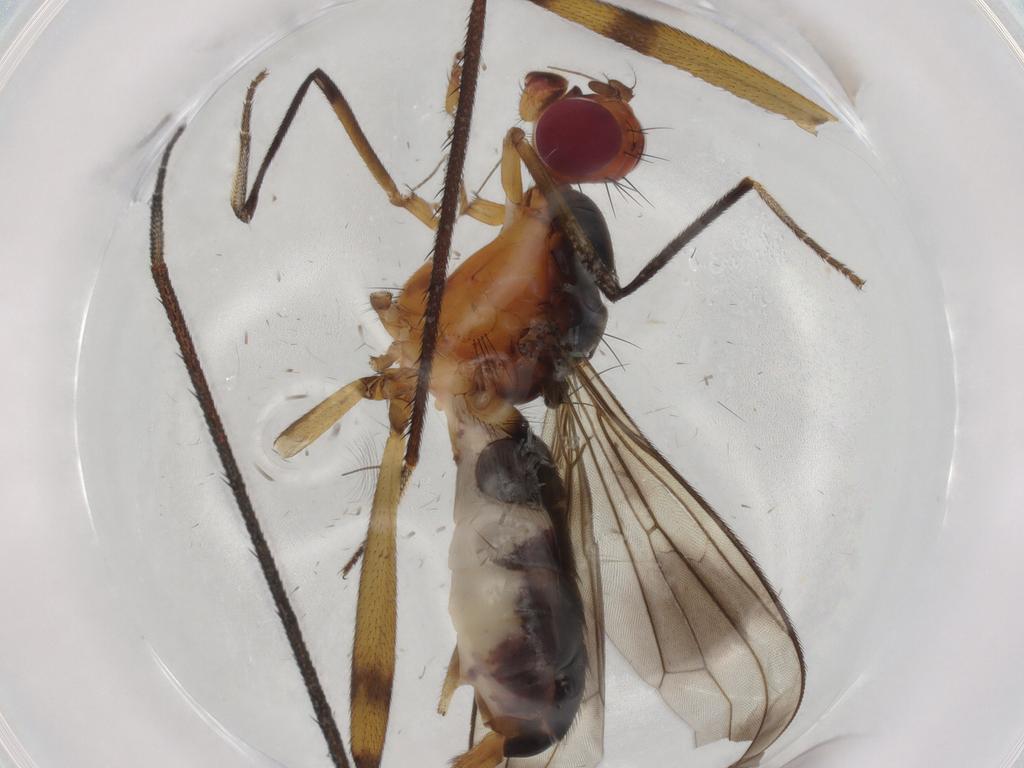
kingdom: Animalia
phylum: Arthropoda
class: Insecta
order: Diptera
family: Micropezidae
